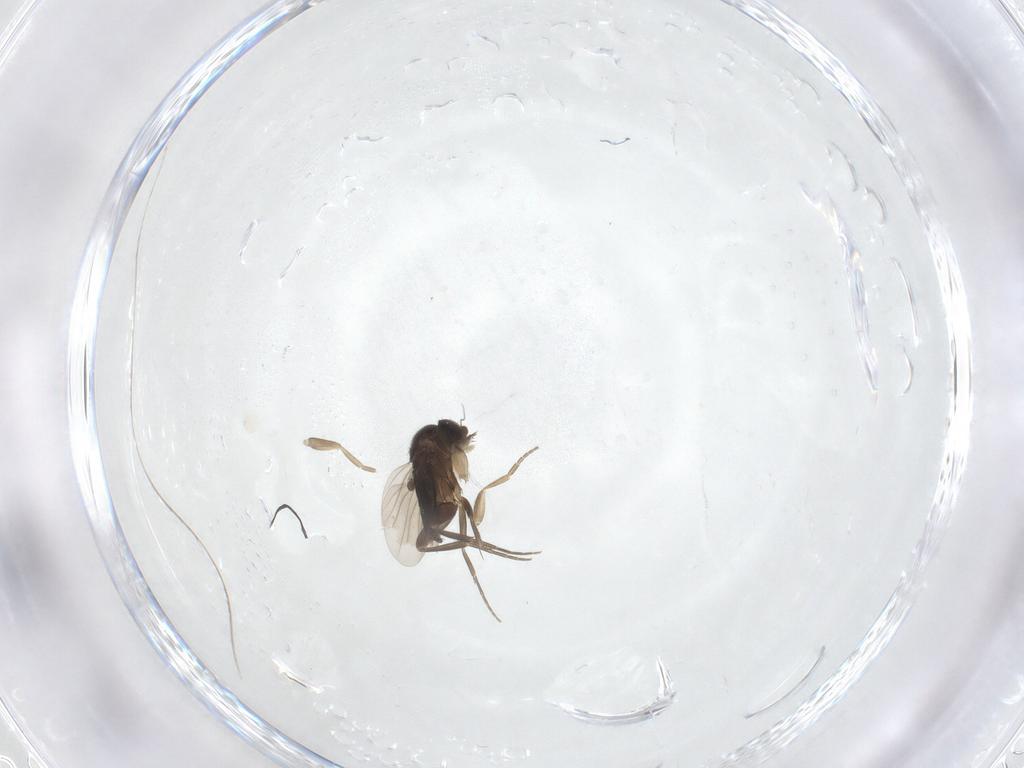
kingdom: Animalia
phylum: Arthropoda
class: Insecta
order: Diptera
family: Phoridae
